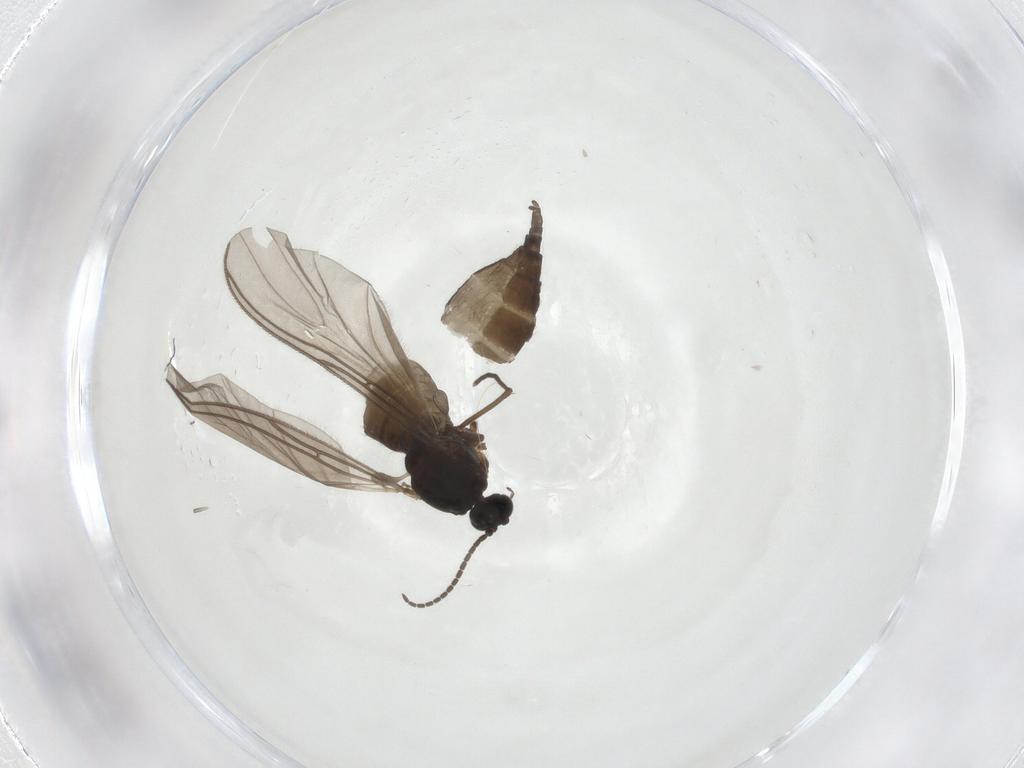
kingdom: Animalia
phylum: Arthropoda
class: Insecta
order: Diptera
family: Sciaridae
